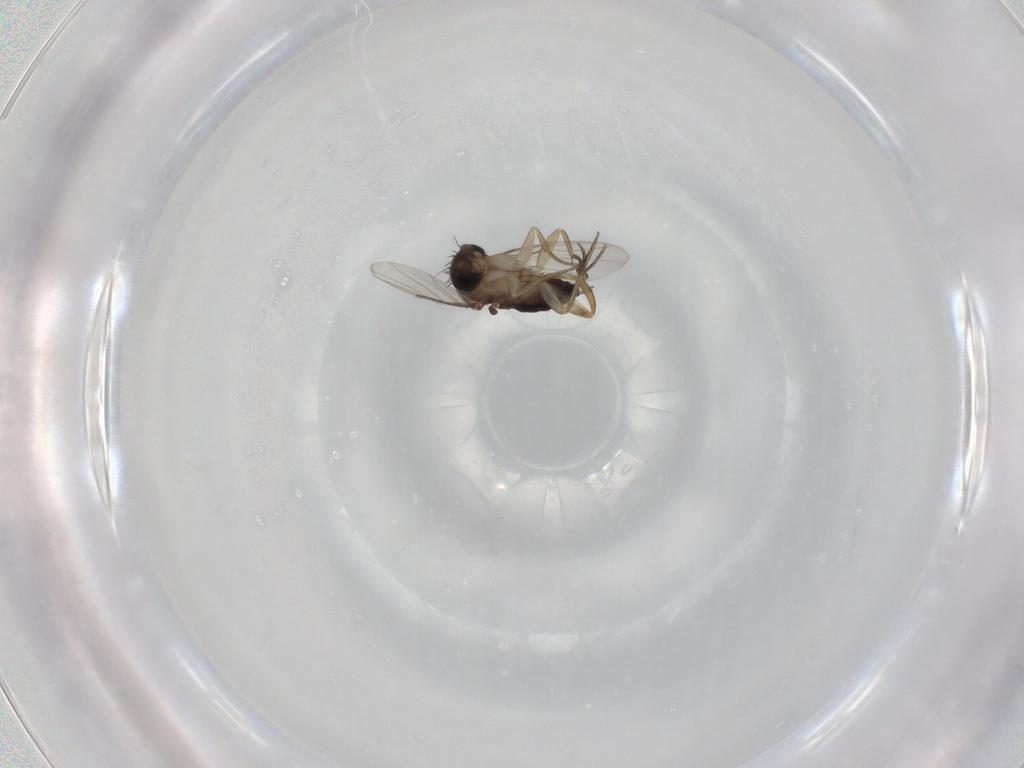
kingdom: Animalia
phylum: Arthropoda
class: Insecta
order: Diptera
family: Phoridae
